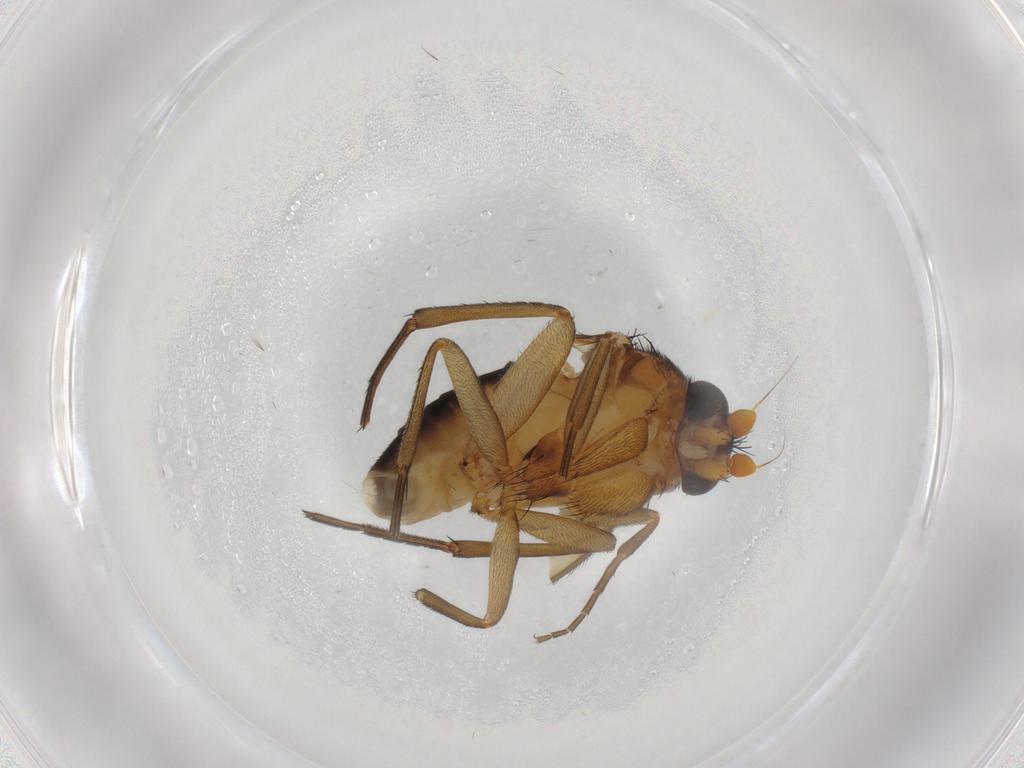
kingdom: Animalia
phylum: Arthropoda
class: Insecta
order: Diptera
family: Phoridae
